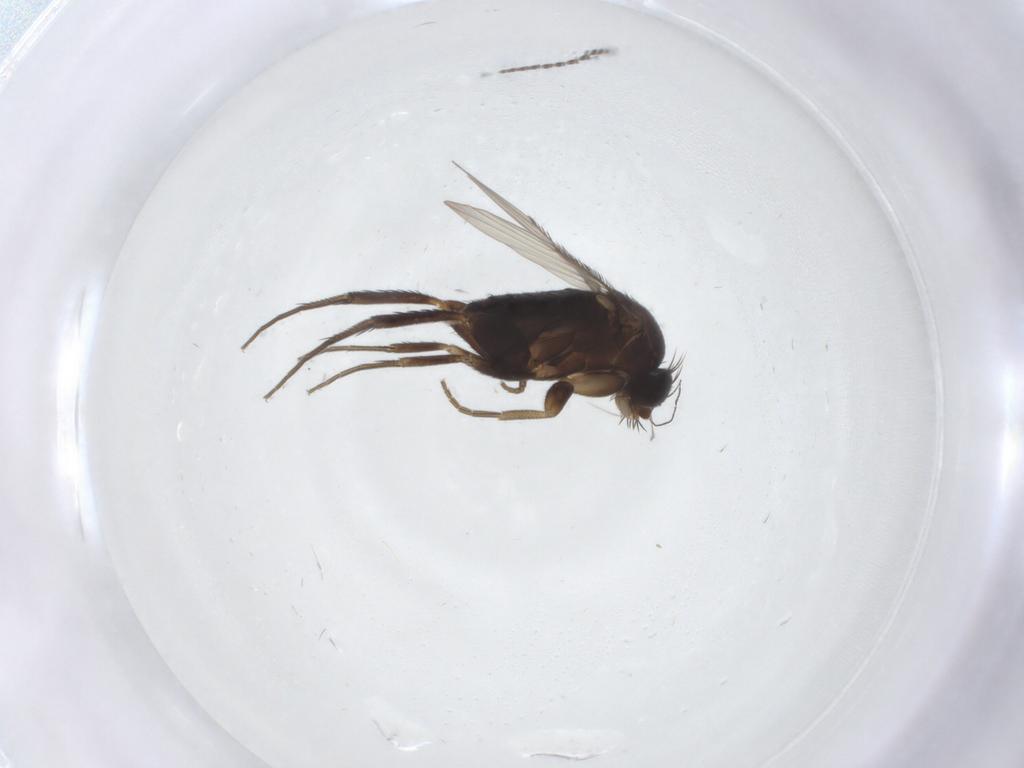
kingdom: Animalia
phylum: Arthropoda
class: Insecta
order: Diptera
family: Phoridae
